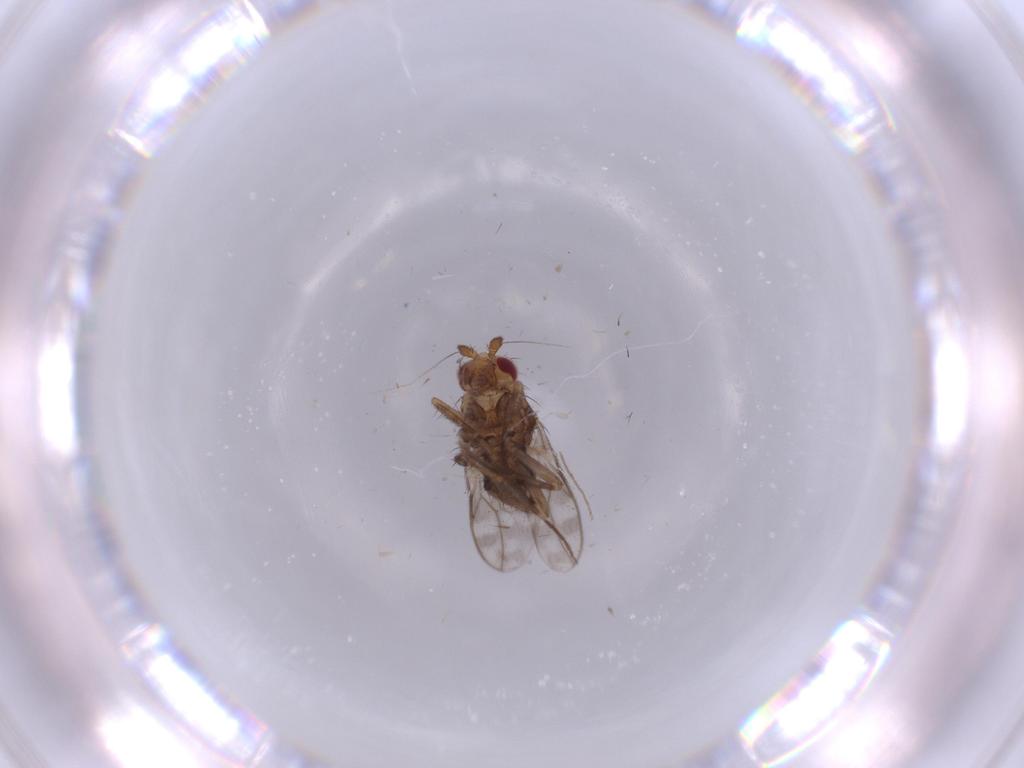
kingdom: Animalia
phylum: Arthropoda
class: Insecta
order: Diptera
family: Sphaeroceridae
